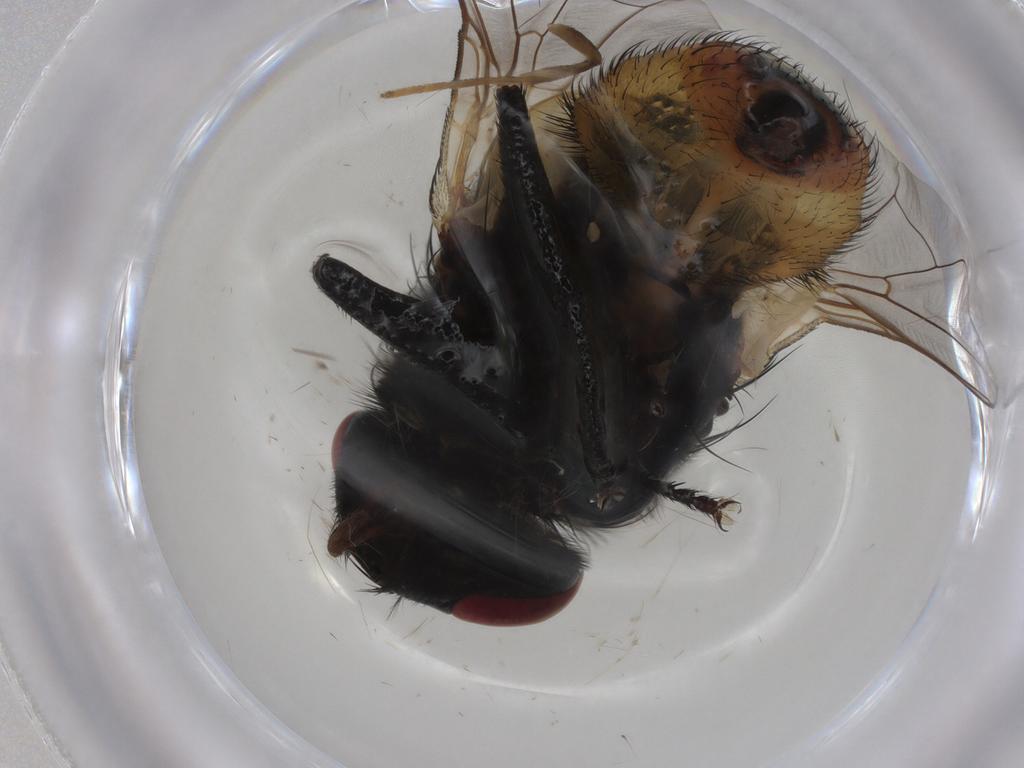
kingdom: Animalia
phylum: Arthropoda
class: Insecta
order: Diptera
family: Muscidae
